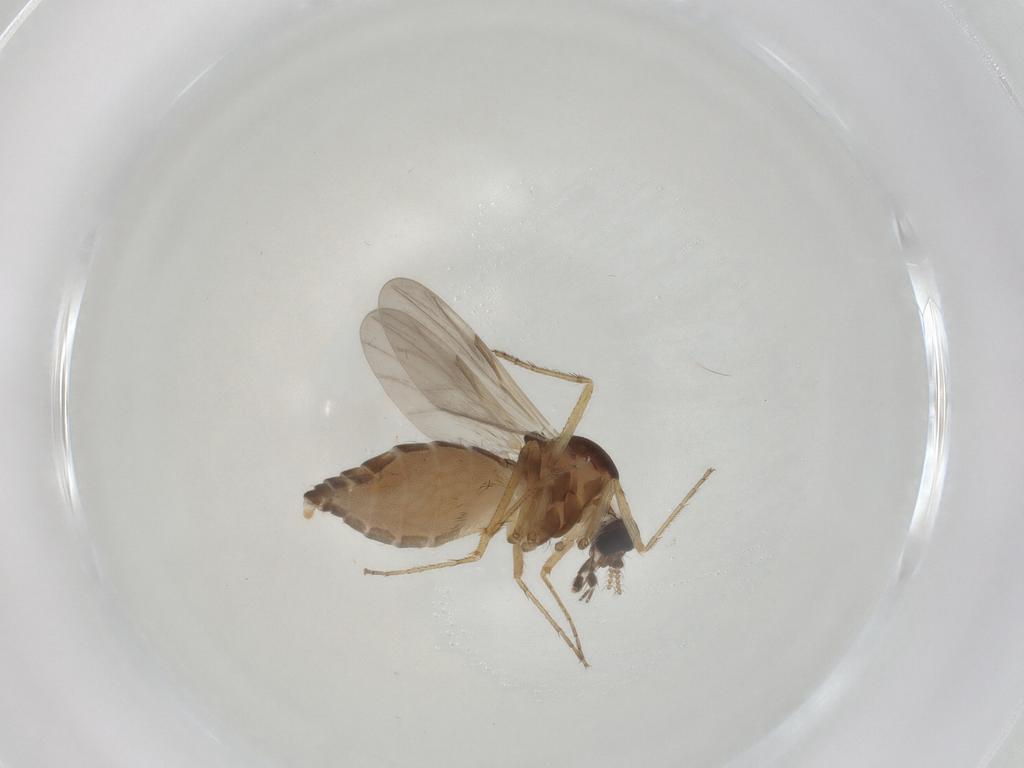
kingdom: Animalia
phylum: Arthropoda
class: Insecta
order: Diptera
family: Ceratopogonidae
